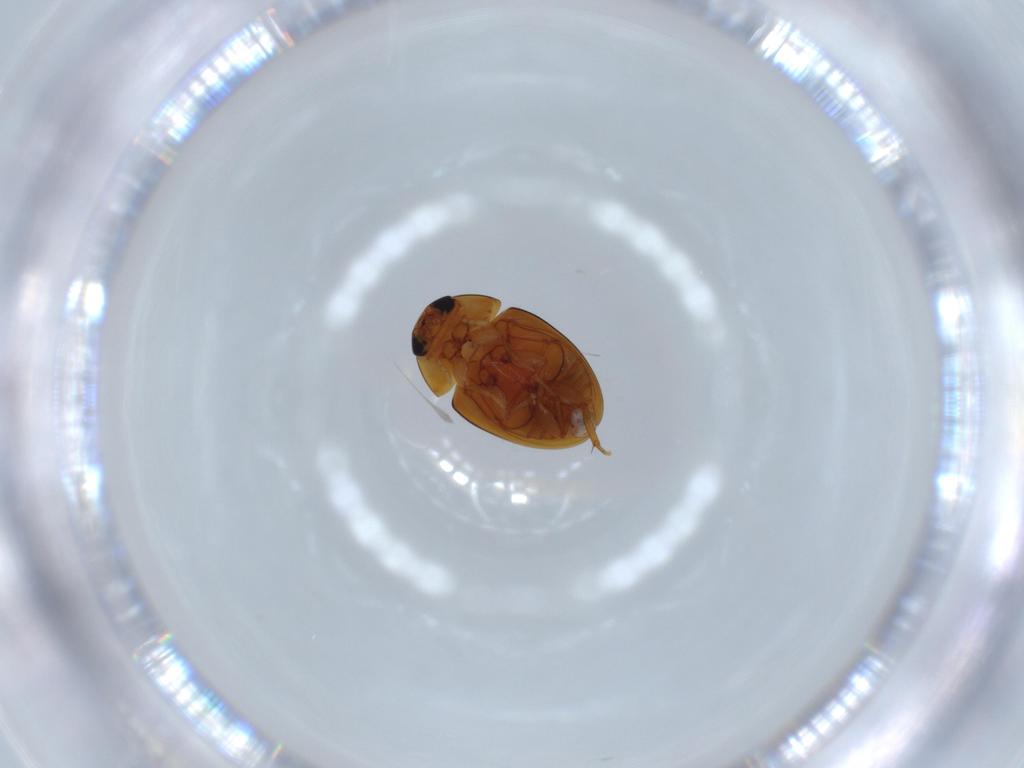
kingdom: Animalia
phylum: Arthropoda
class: Insecta
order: Coleoptera
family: Phalacridae
